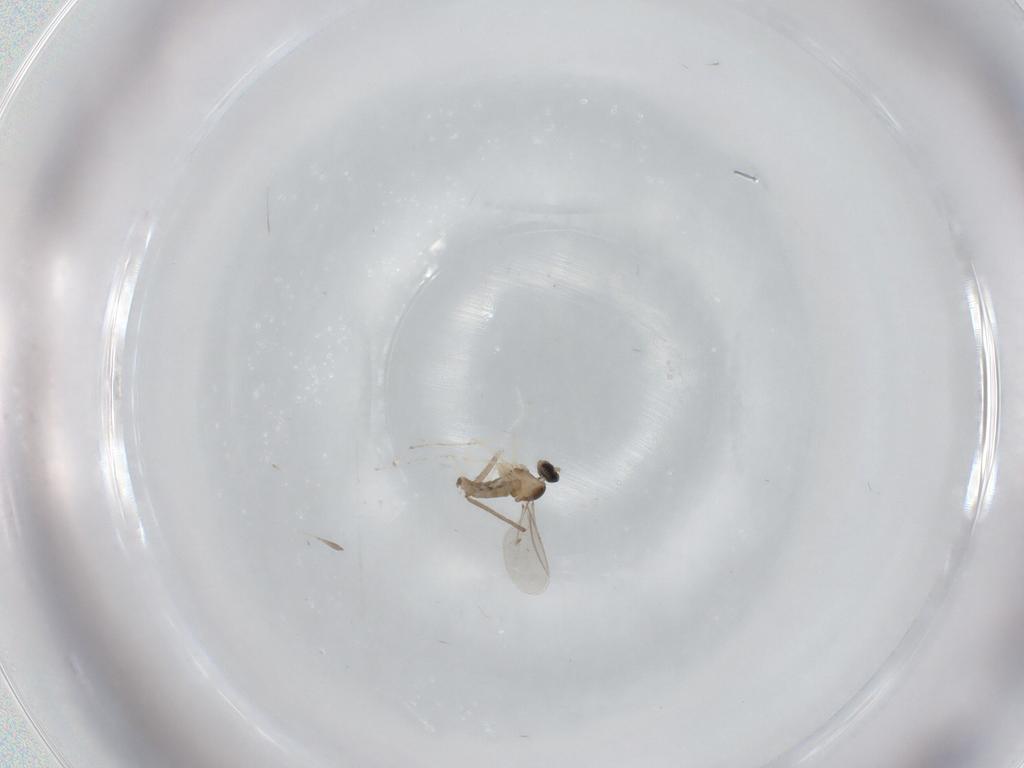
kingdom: Animalia
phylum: Arthropoda
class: Insecta
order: Diptera
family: Cecidomyiidae
